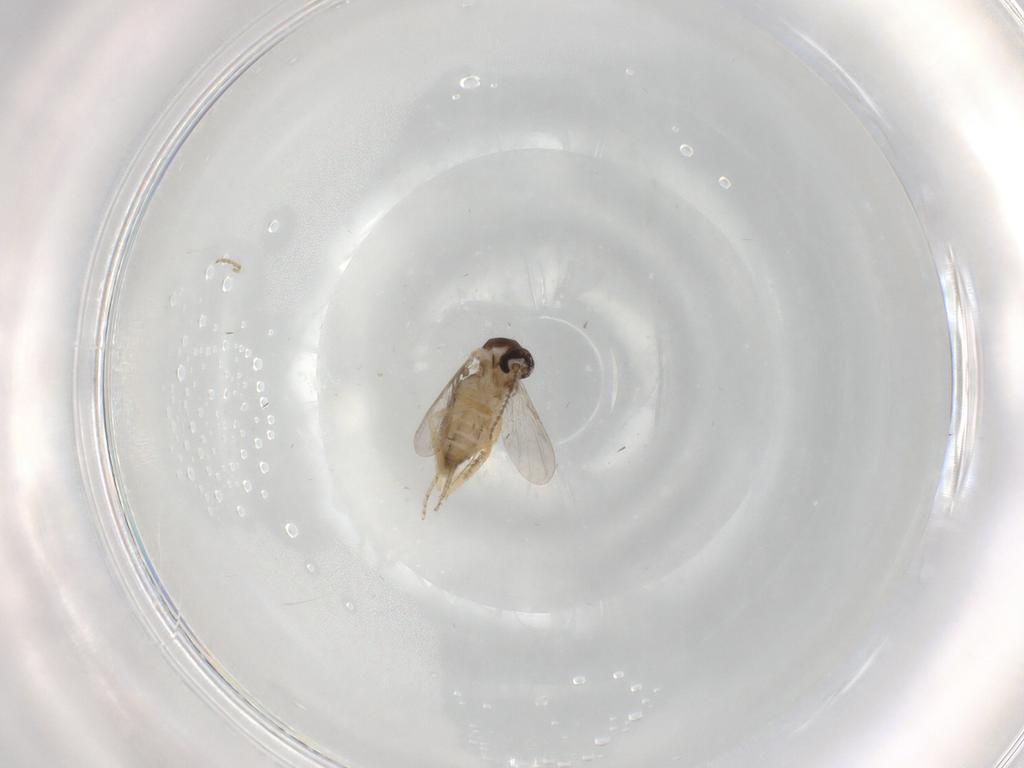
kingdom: Animalia
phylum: Arthropoda
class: Insecta
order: Diptera
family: Ceratopogonidae
